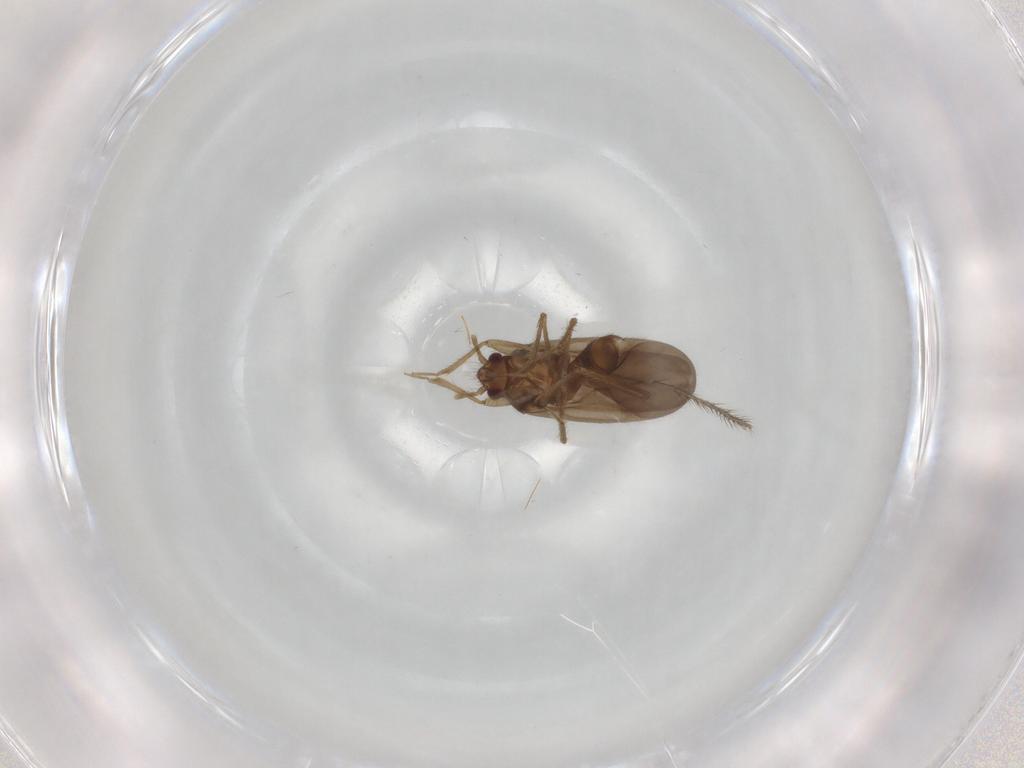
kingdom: Animalia
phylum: Arthropoda
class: Insecta
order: Hemiptera
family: Ceratocombidae
